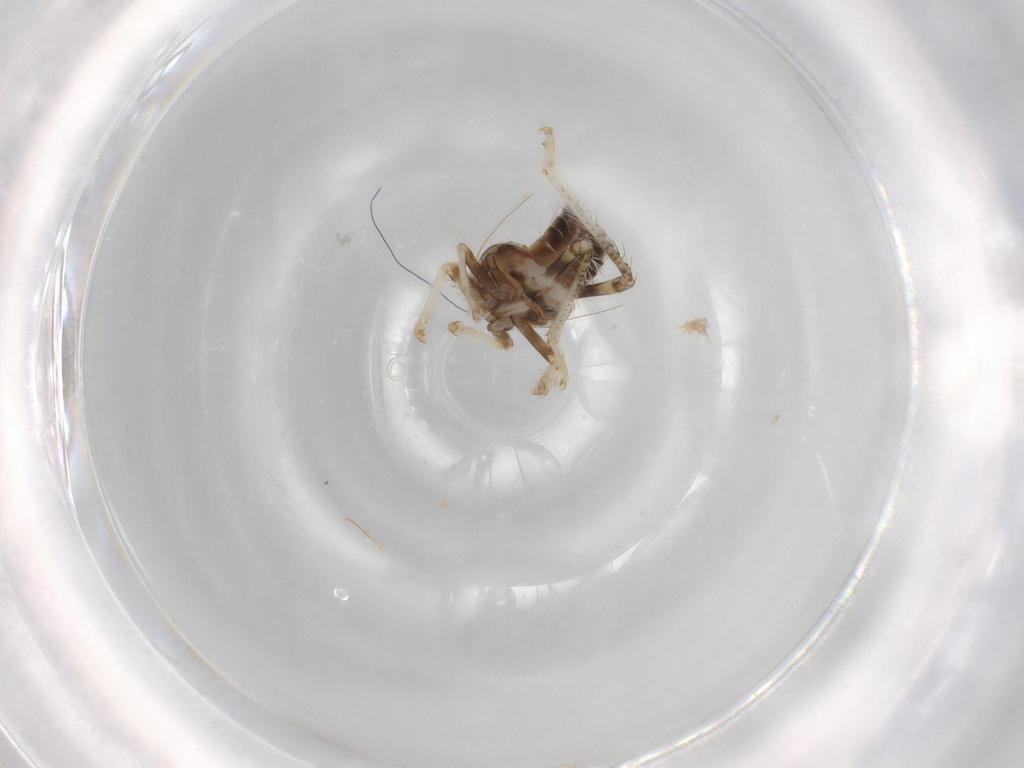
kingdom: Animalia
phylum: Arthropoda
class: Insecta
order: Hemiptera
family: Cicadellidae
